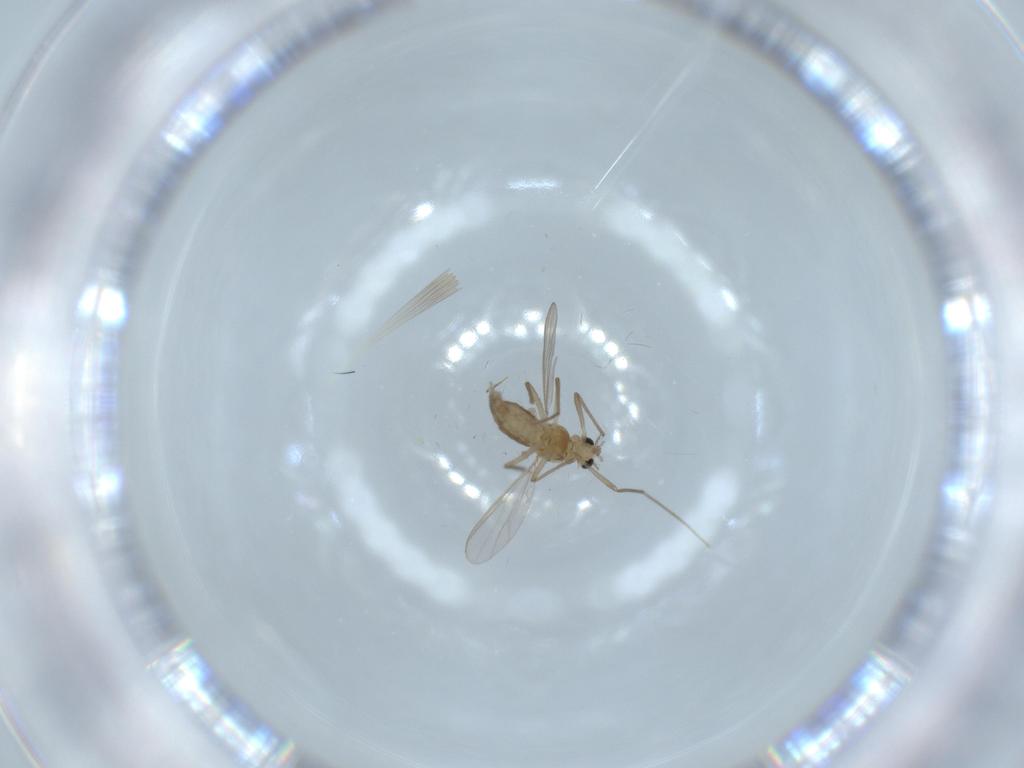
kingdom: Animalia
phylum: Arthropoda
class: Insecta
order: Diptera
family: Chironomidae
